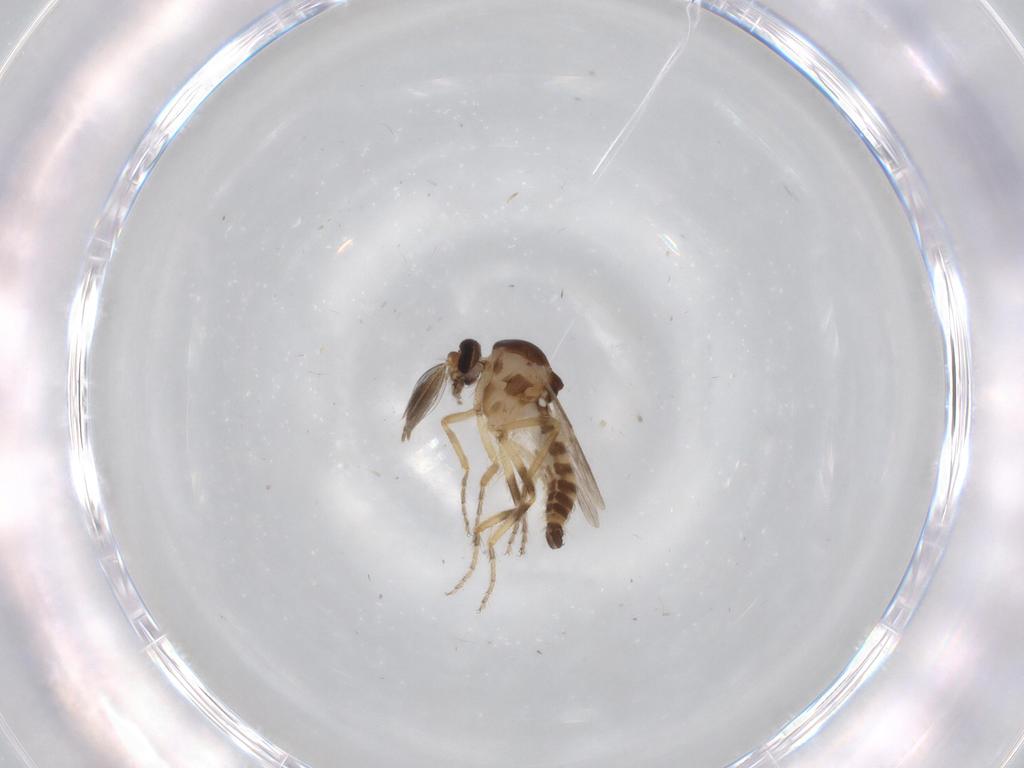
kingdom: Animalia
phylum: Arthropoda
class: Insecta
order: Diptera
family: Ceratopogonidae
